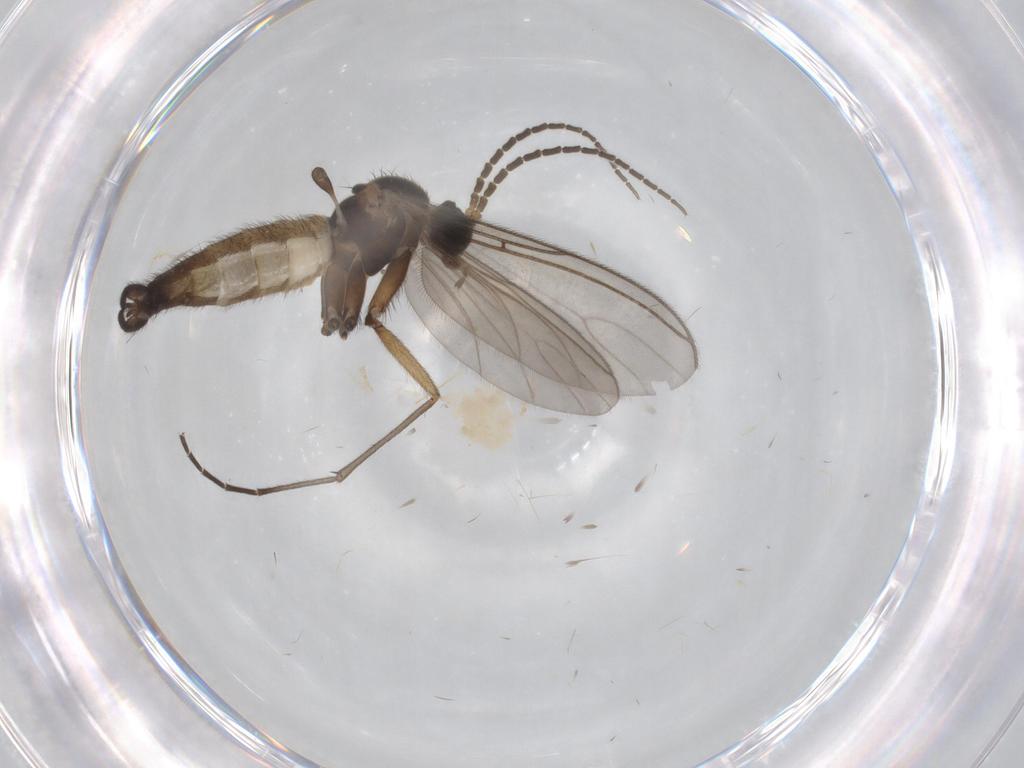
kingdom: Animalia
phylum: Arthropoda
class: Insecta
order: Diptera
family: Sciaridae
